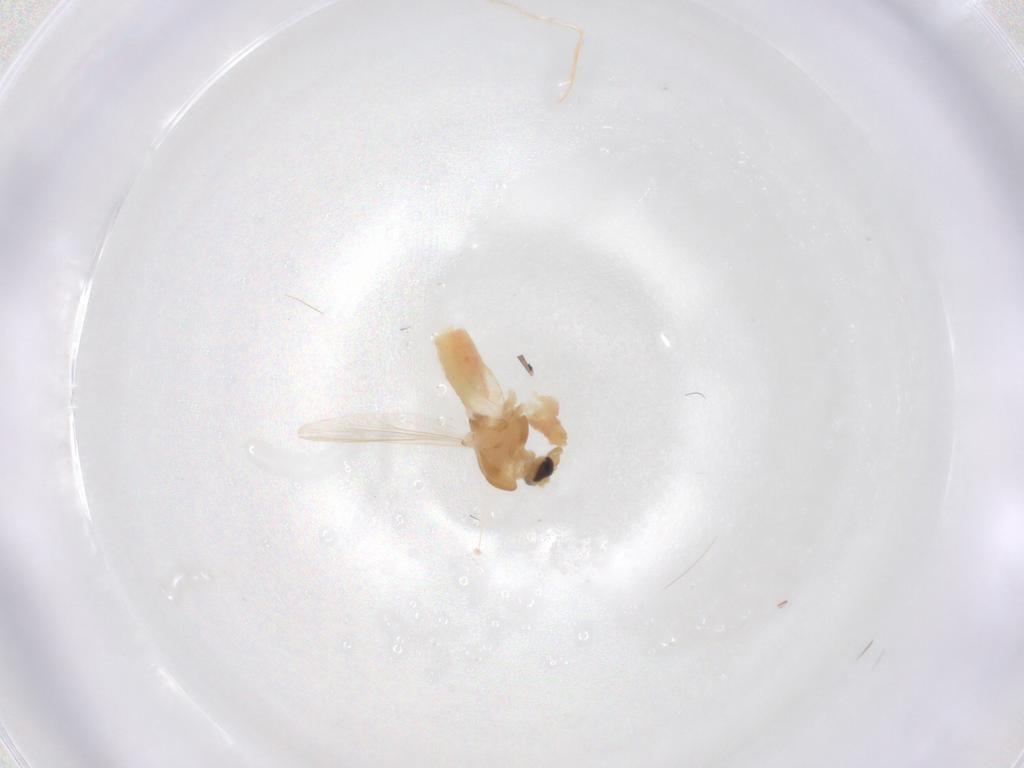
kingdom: Animalia
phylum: Arthropoda
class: Insecta
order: Diptera
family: Chironomidae
